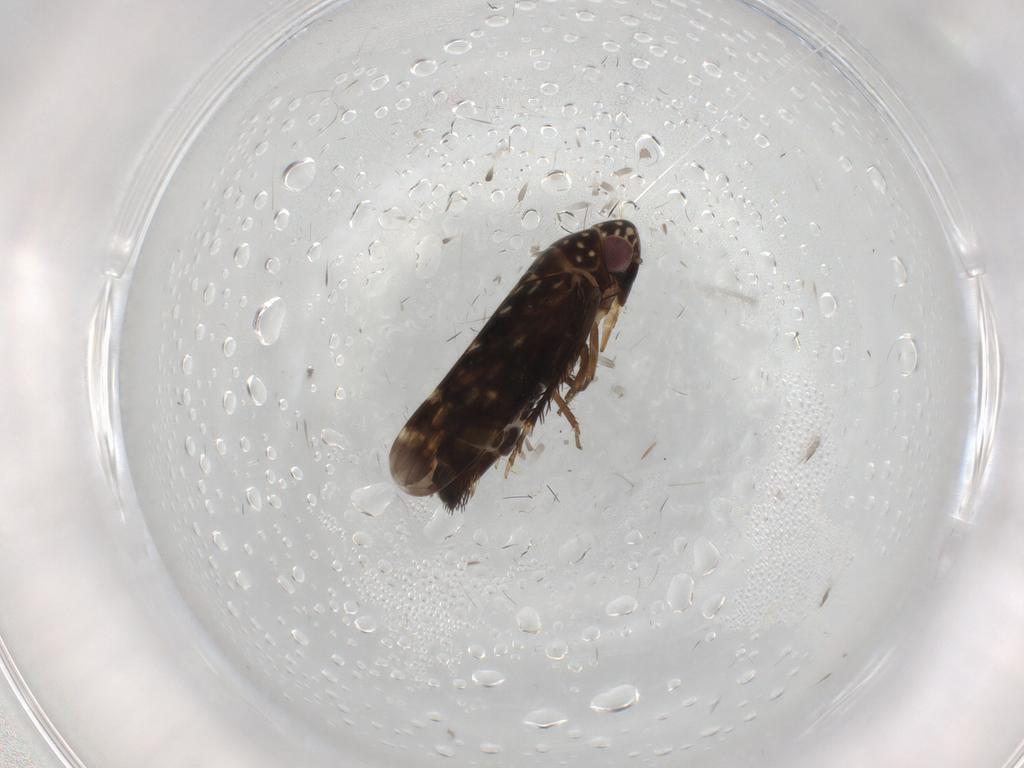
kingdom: Animalia
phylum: Arthropoda
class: Insecta
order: Hemiptera
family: Cicadellidae
